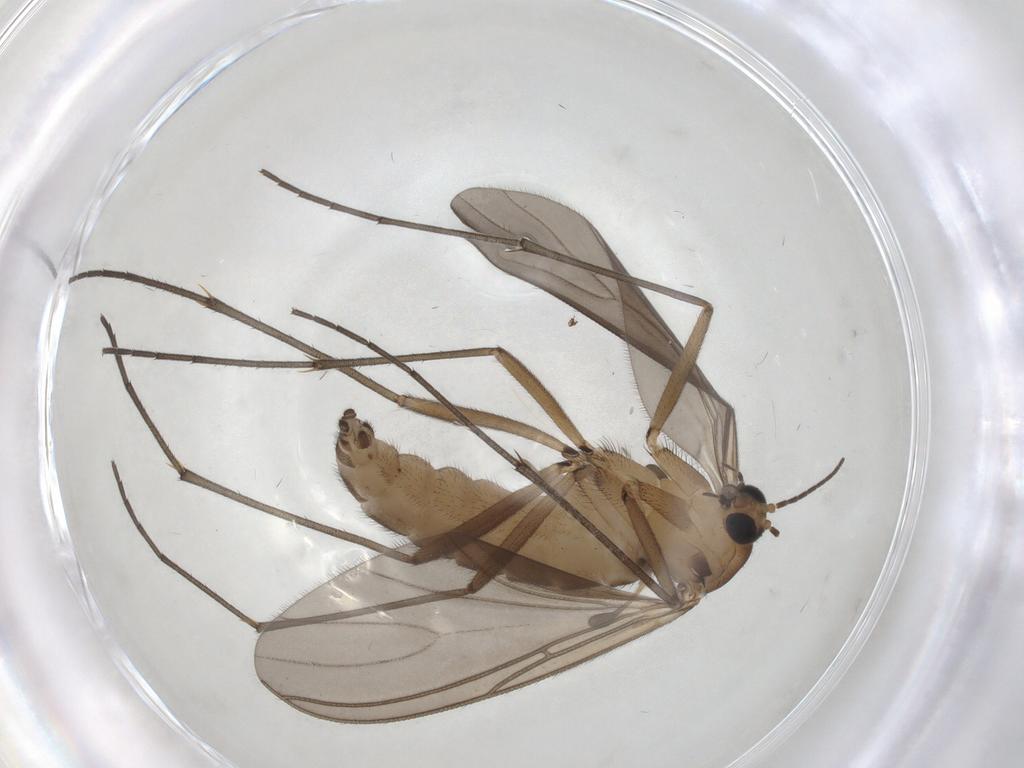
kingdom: Animalia
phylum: Arthropoda
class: Insecta
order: Diptera
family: Sciaridae
